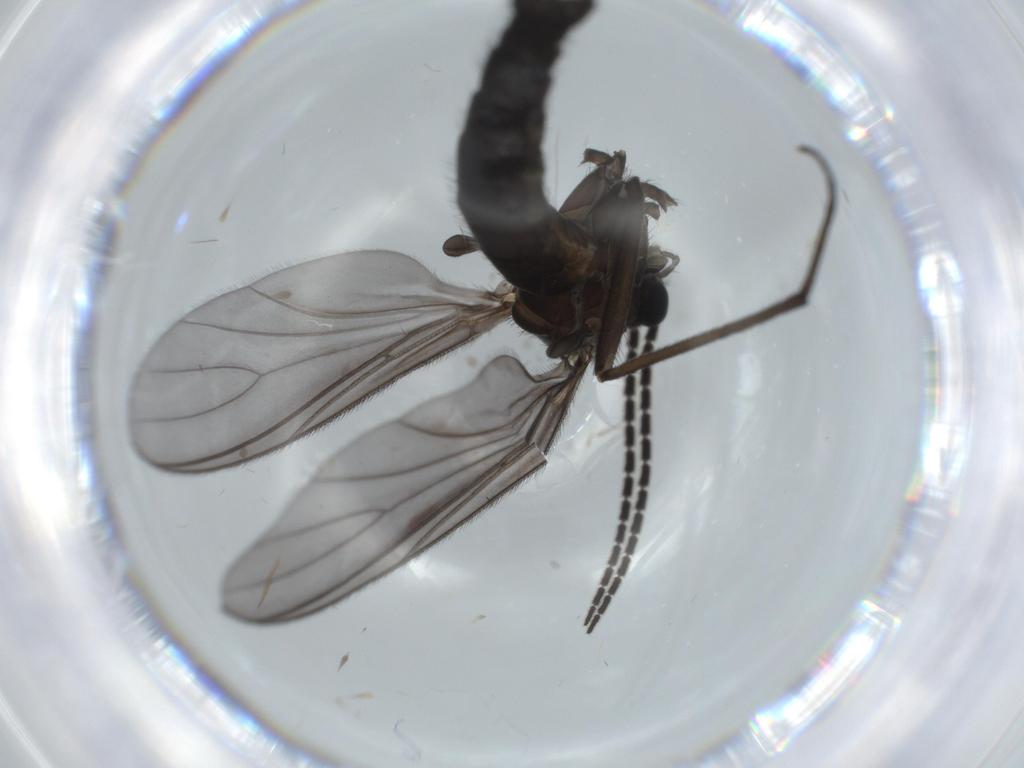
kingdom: Animalia
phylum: Arthropoda
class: Insecta
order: Diptera
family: Cecidomyiidae
